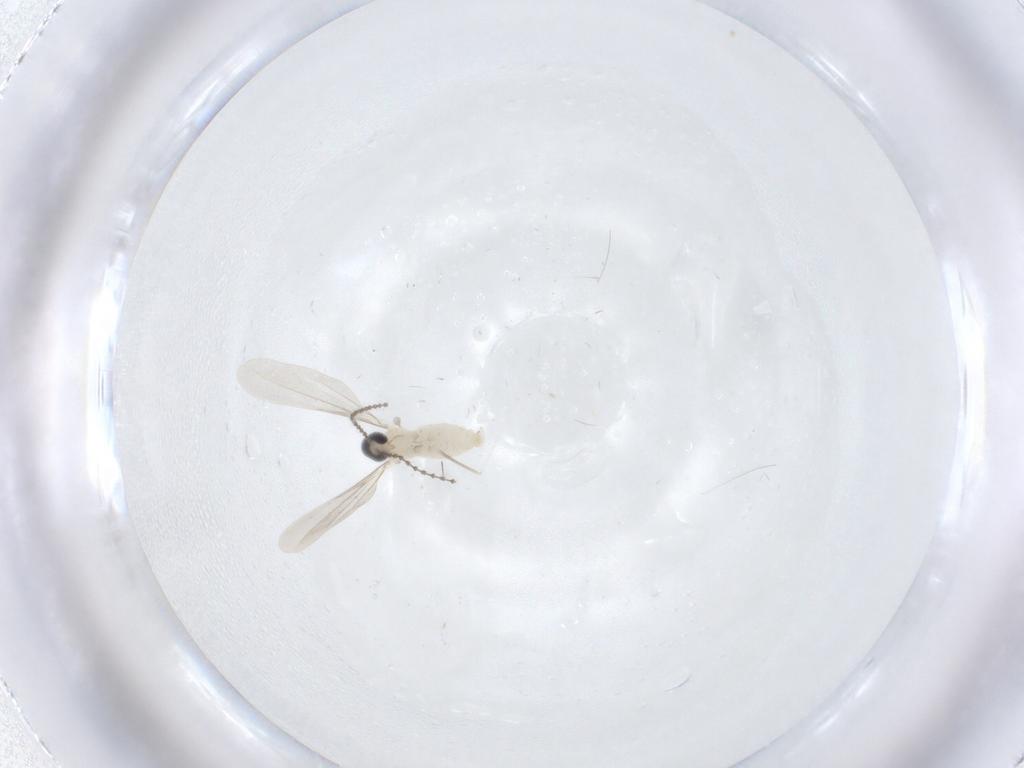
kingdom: Animalia
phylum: Arthropoda
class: Insecta
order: Diptera
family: Cecidomyiidae
